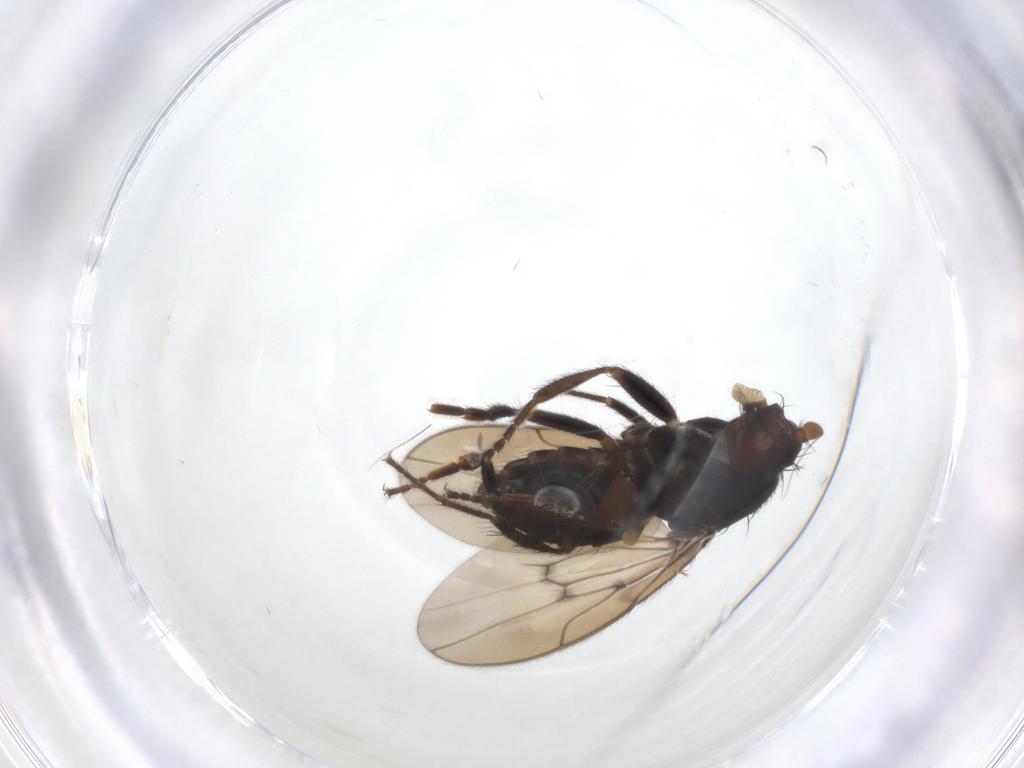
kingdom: Animalia
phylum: Arthropoda
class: Insecta
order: Diptera
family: Sphaeroceridae
